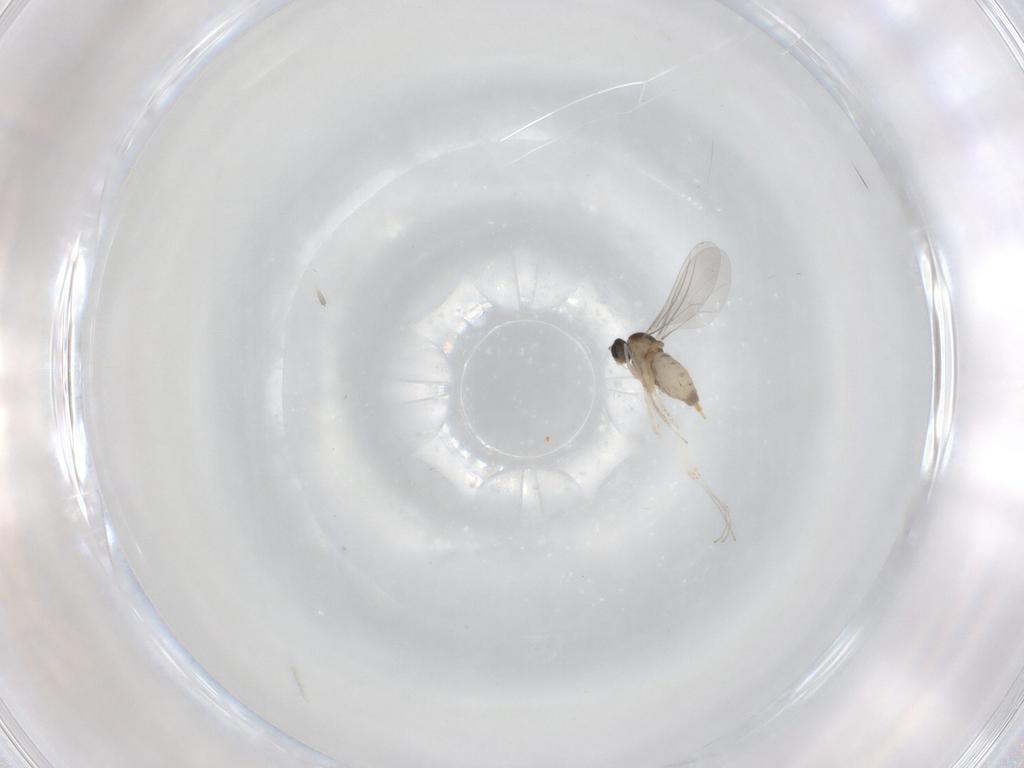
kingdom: Animalia
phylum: Arthropoda
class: Insecta
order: Diptera
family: Cecidomyiidae
